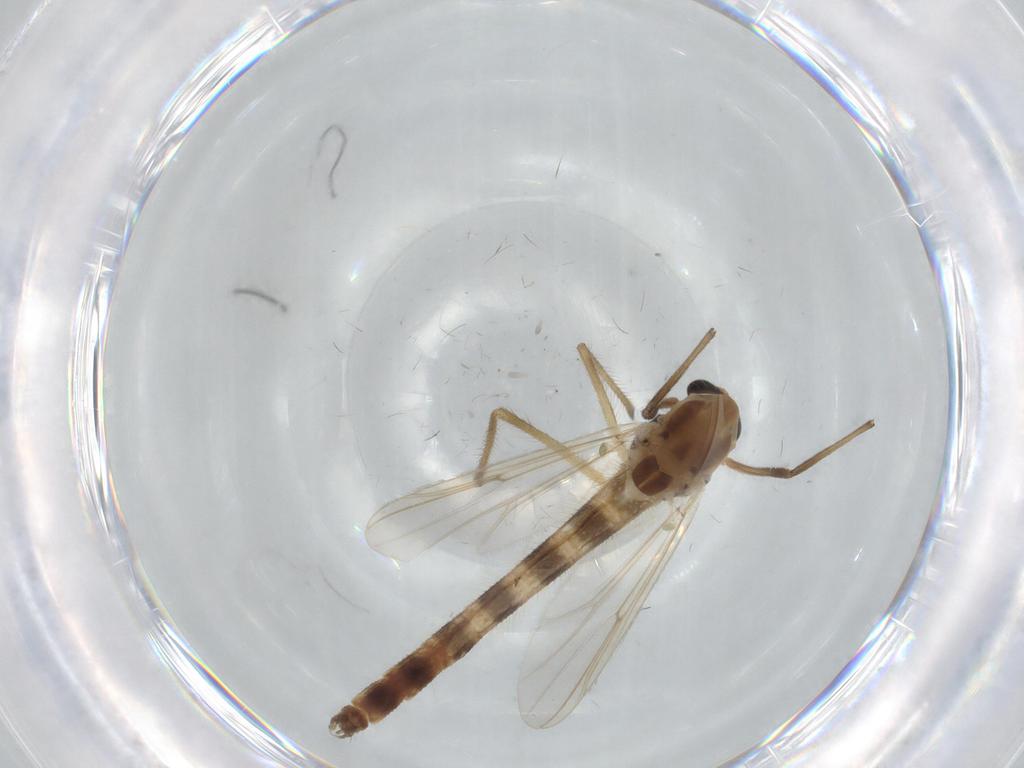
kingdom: Animalia
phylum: Arthropoda
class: Insecta
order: Diptera
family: Chironomidae
